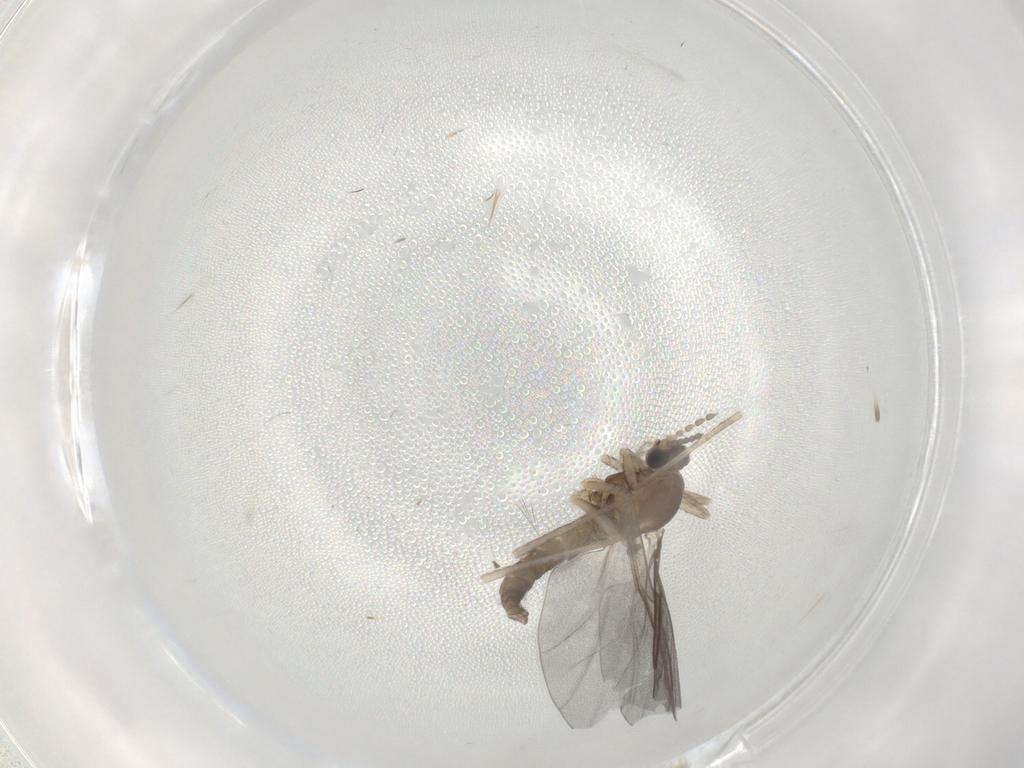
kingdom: Animalia
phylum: Arthropoda
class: Insecta
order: Diptera
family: Cecidomyiidae
